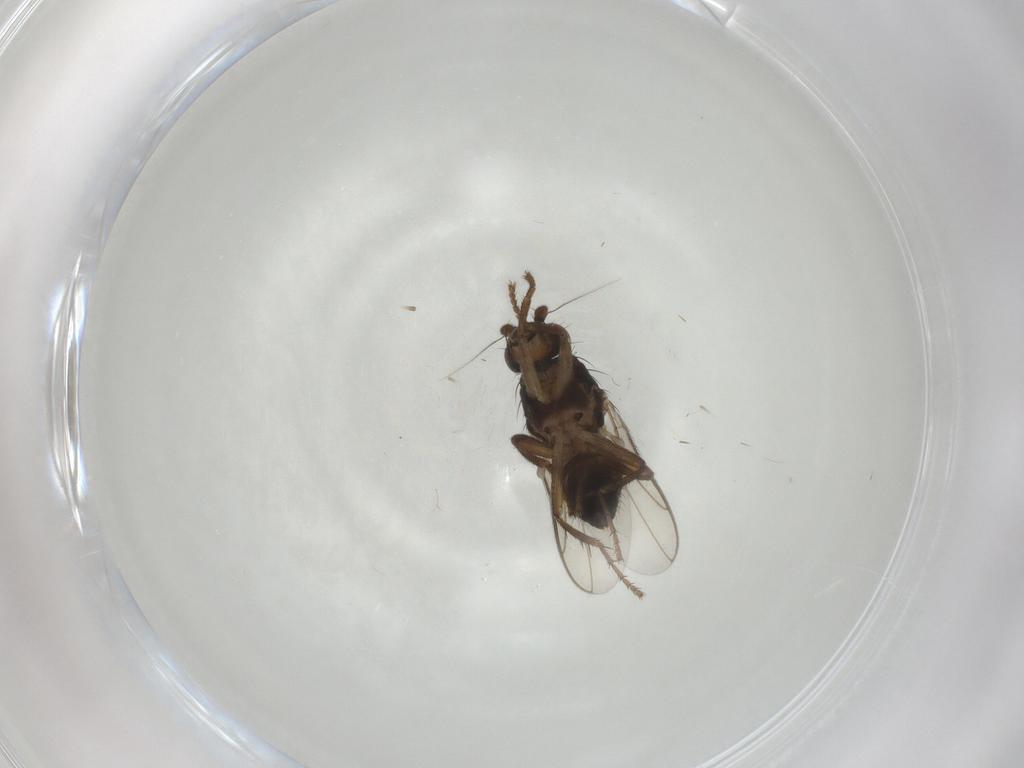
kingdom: Animalia
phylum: Arthropoda
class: Insecta
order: Diptera
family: Sphaeroceridae
